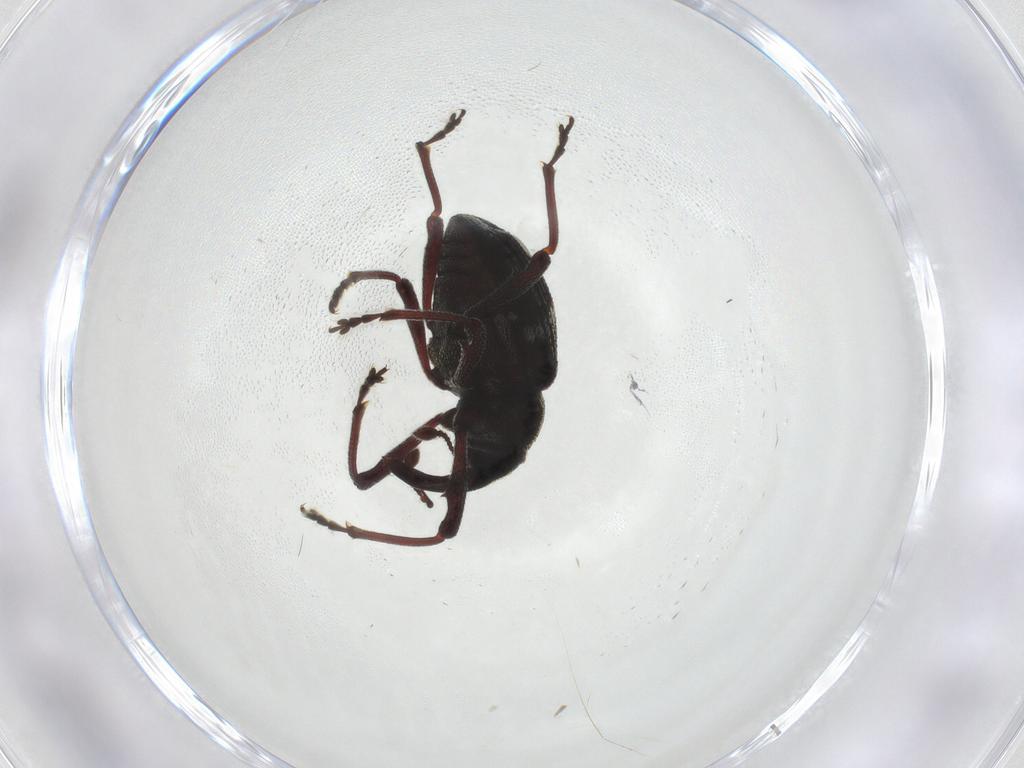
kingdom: Animalia
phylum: Arthropoda
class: Insecta
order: Coleoptera
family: Curculionidae
